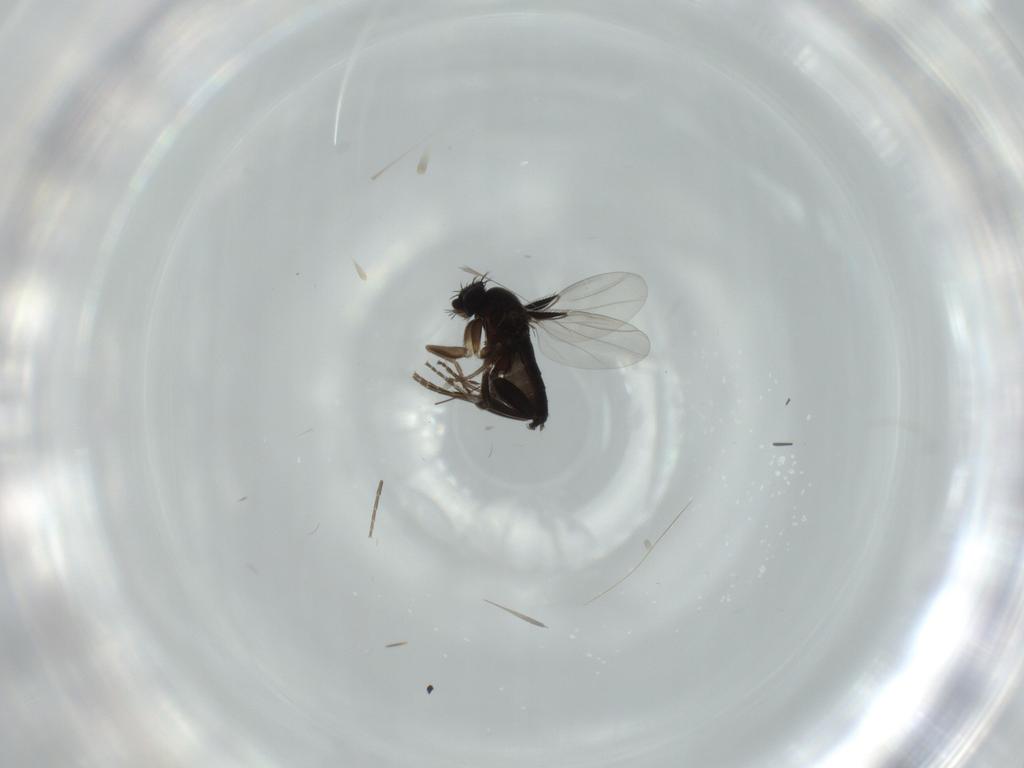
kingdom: Animalia
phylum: Arthropoda
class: Insecta
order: Diptera
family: Phoridae
